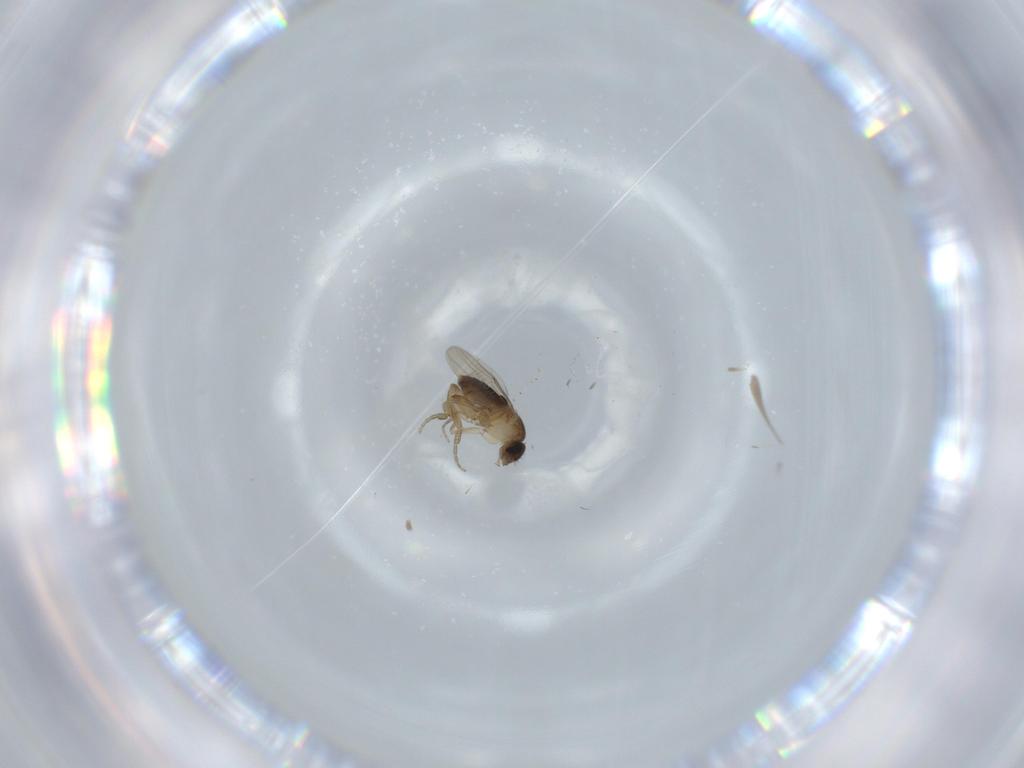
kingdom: Animalia
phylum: Arthropoda
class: Insecta
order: Diptera
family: Phoridae
